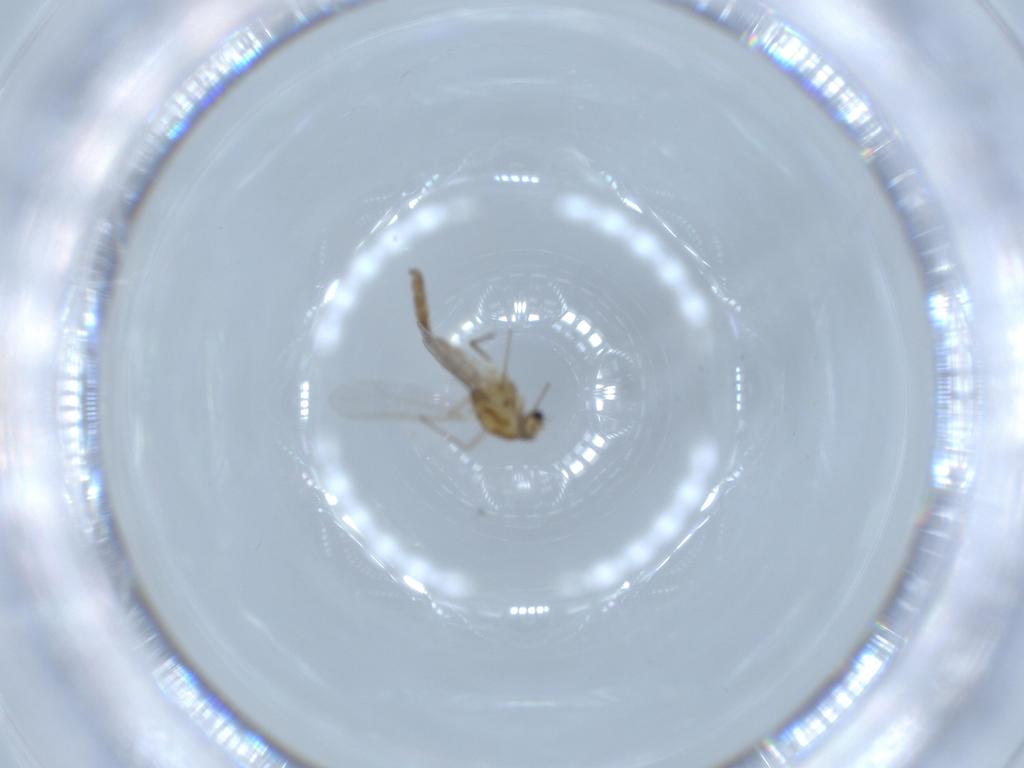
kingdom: Animalia
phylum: Arthropoda
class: Insecta
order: Diptera
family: Chironomidae
